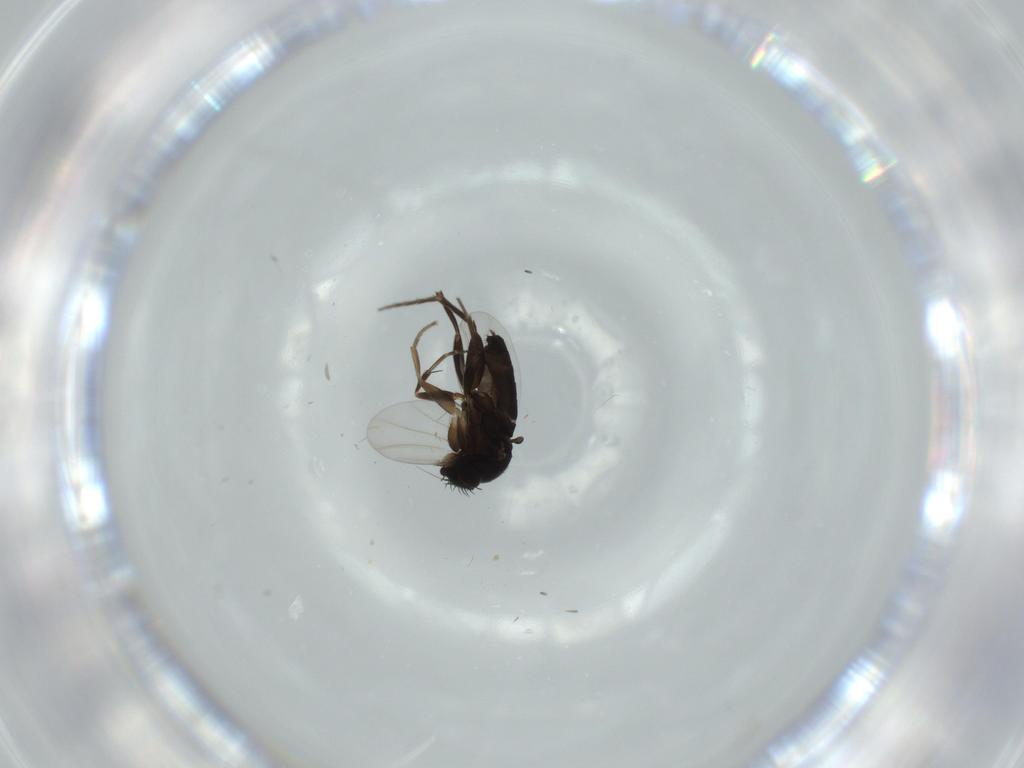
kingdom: Animalia
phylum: Arthropoda
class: Insecta
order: Diptera
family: Phoridae
